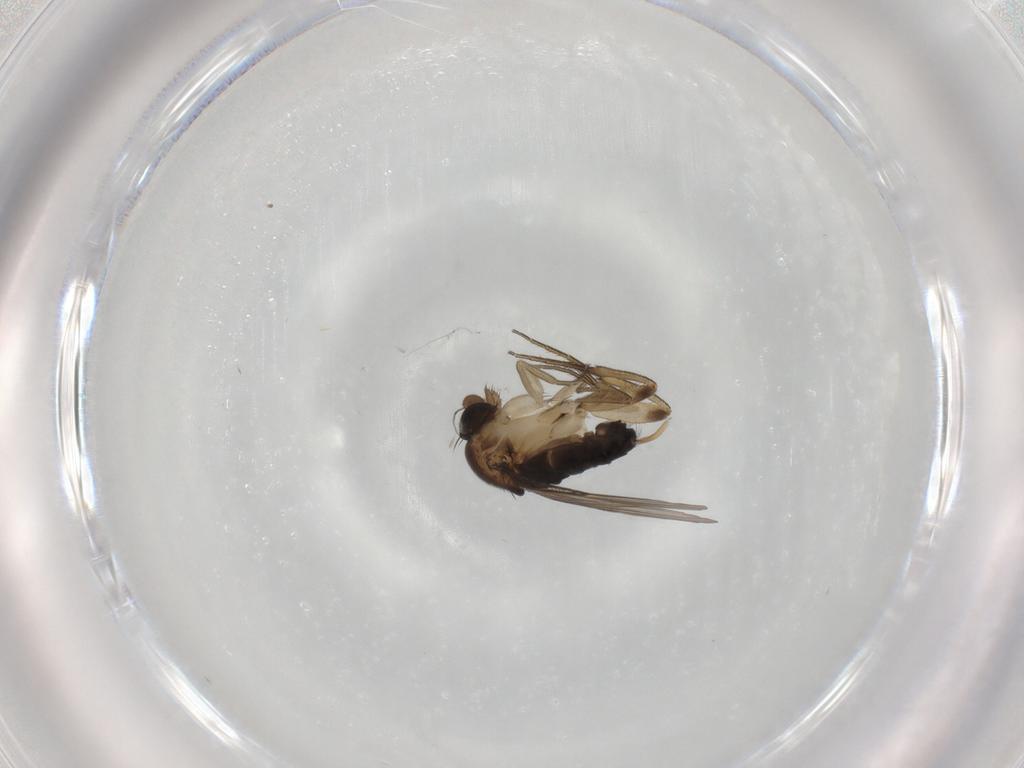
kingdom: Animalia
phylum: Arthropoda
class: Insecta
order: Diptera
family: Phoridae
